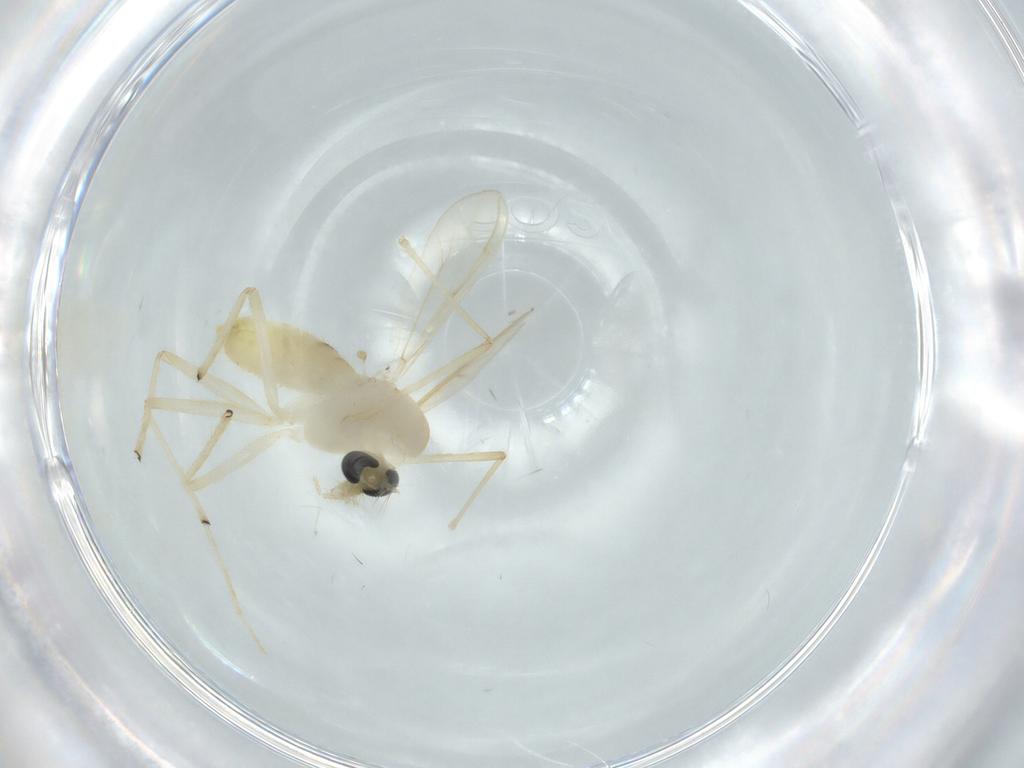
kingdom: Animalia
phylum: Arthropoda
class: Insecta
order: Diptera
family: Chironomidae
